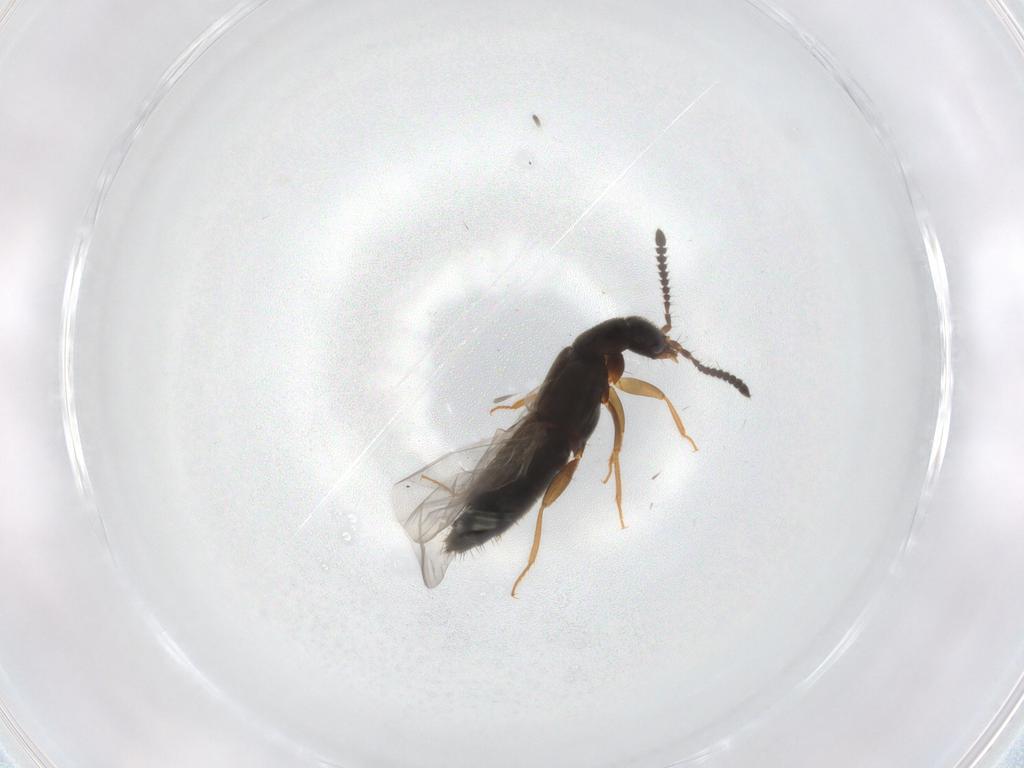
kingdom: Animalia
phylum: Arthropoda
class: Insecta
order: Coleoptera
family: Staphylinidae
